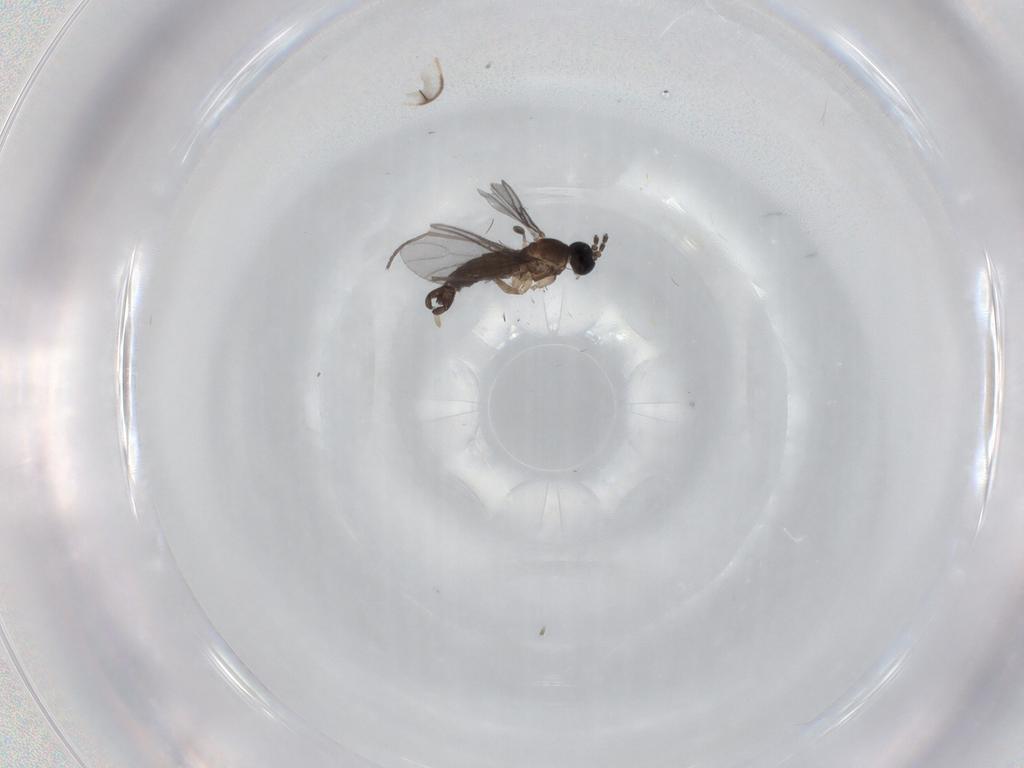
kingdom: Animalia
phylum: Arthropoda
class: Insecta
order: Diptera
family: Sciaridae
